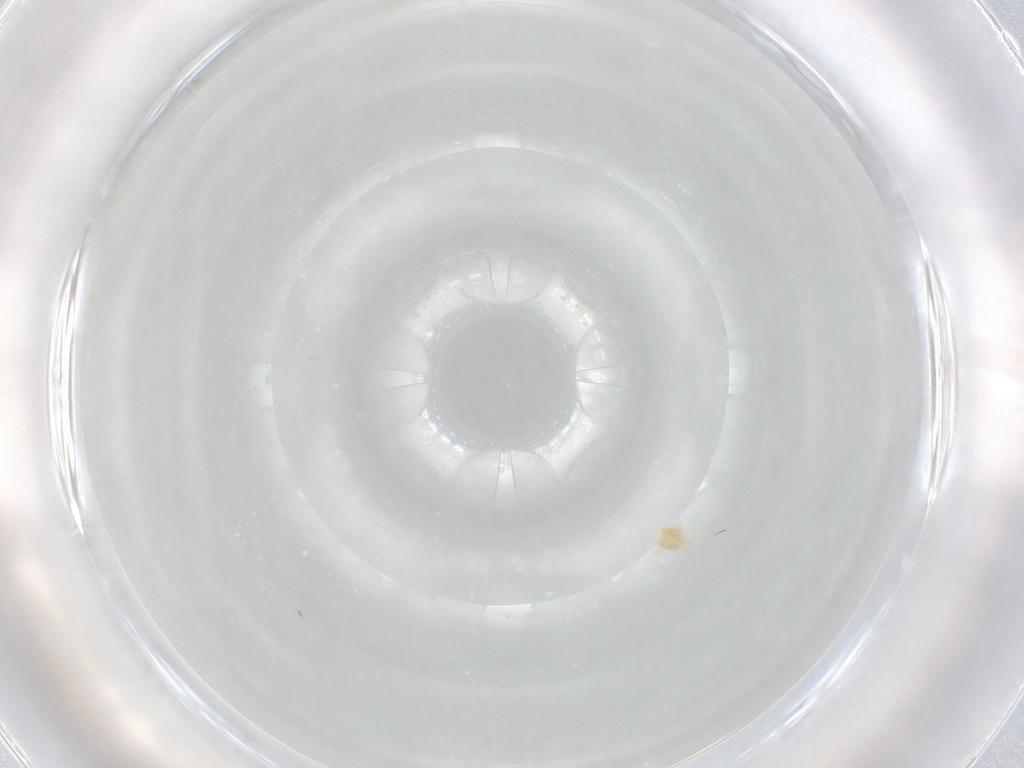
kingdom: Animalia
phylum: Arthropoda
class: Arachnida
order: Trombidiformes
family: Eupodidae
